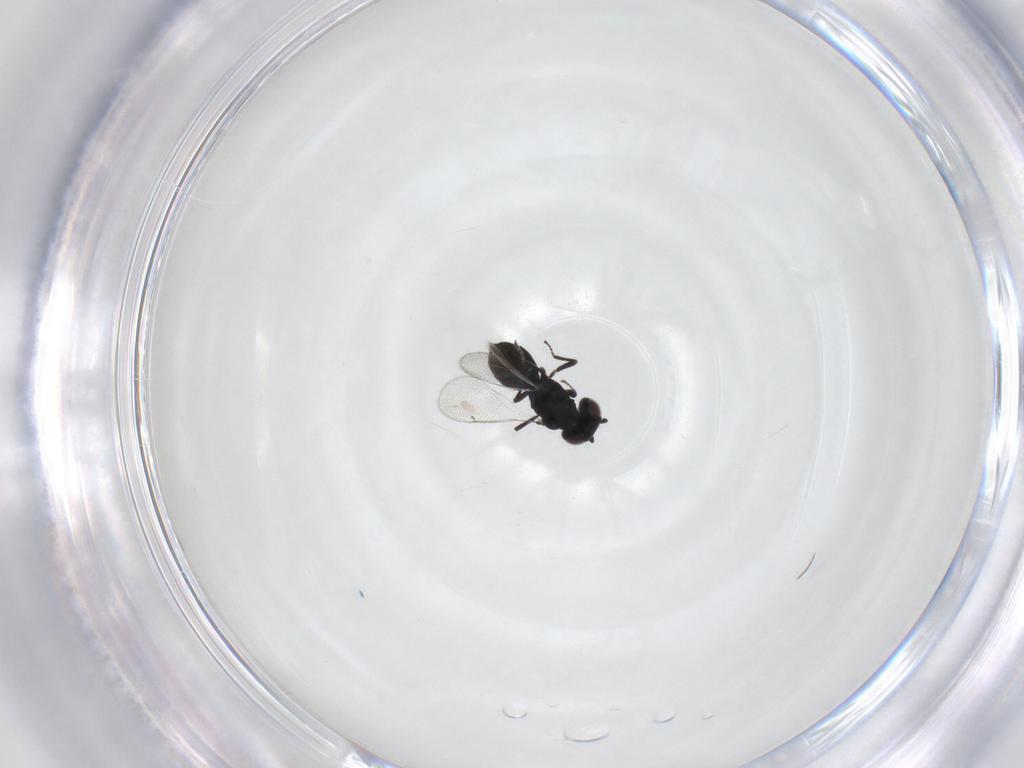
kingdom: Animalia
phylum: Arthropoda
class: Insecta
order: Hymenoptera
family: Eulophidae
